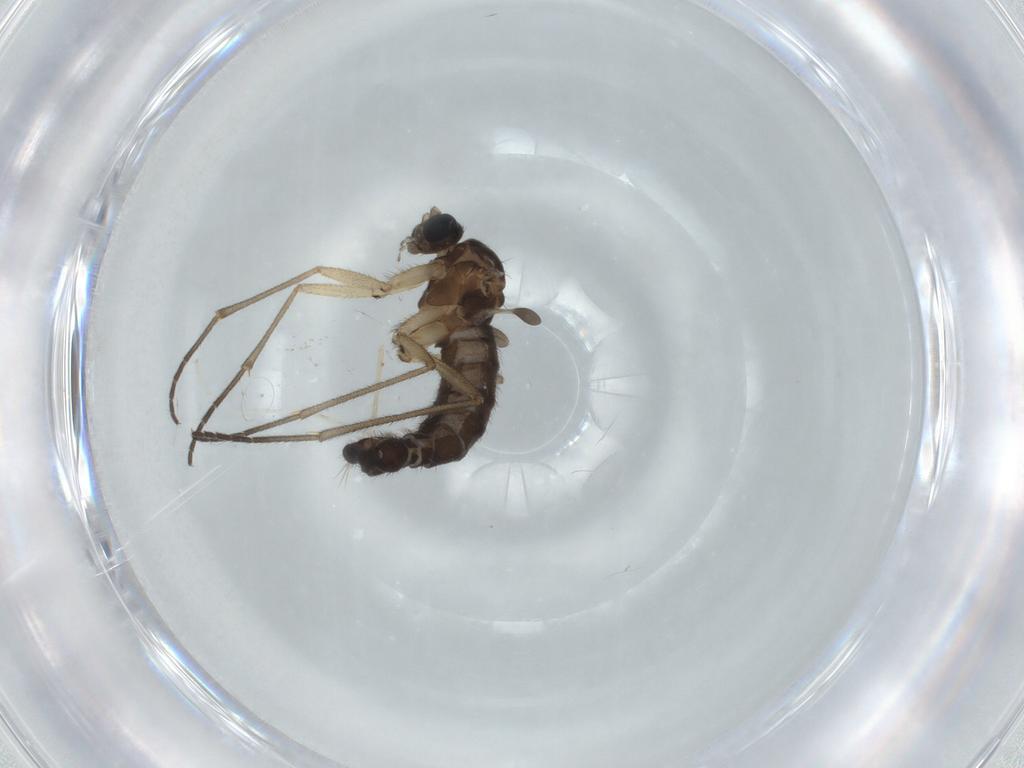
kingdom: Animalia
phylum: Arthropoda
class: Insecta
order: Diptera
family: Sciaridae
